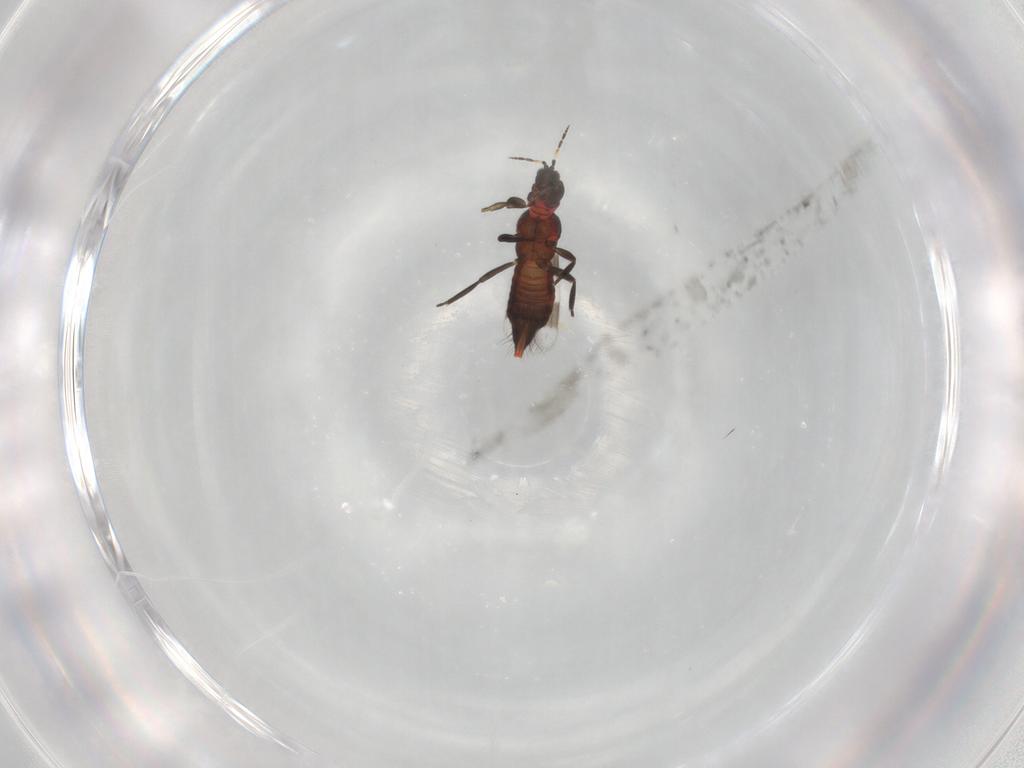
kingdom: Animalia
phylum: Arthropoda
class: Insecta
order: Thysanoptera
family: Aeolothripidae
